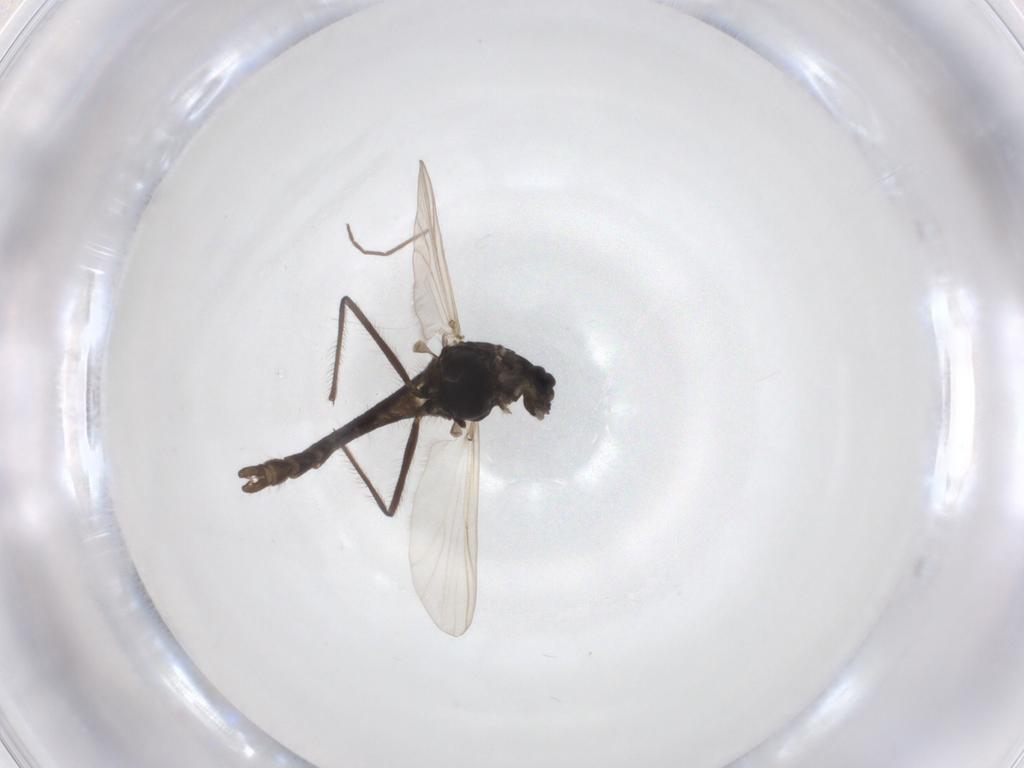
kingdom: Animalia
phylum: Arthropoda
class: Insecta
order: Diptera
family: Chironomidae
